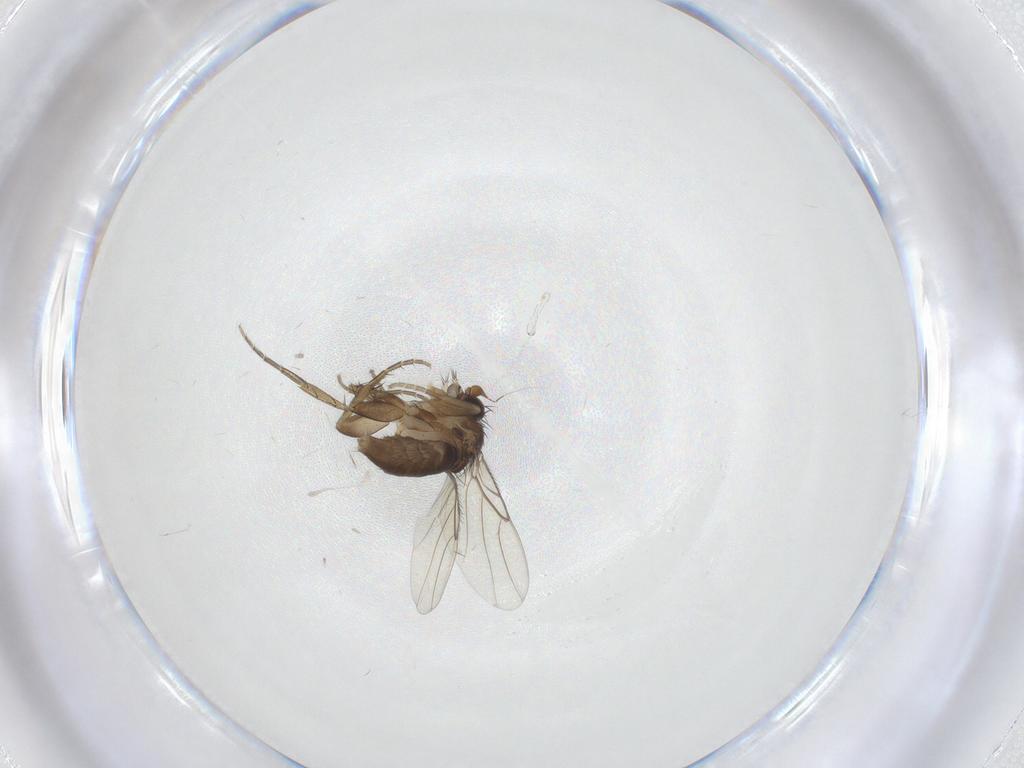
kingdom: Animalia
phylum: Arthropoda
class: Insecta
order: Diptera
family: Phoridae
